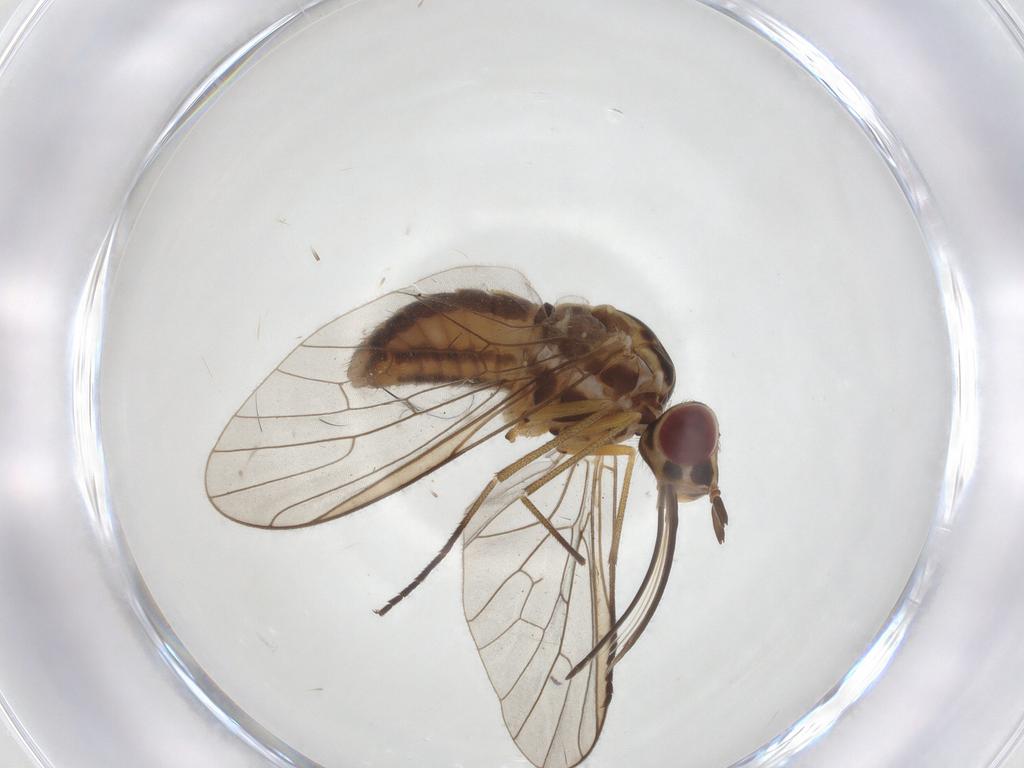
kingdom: Animalia
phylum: Arthropoda
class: Insecta
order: Diptera
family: Bombyliidae
